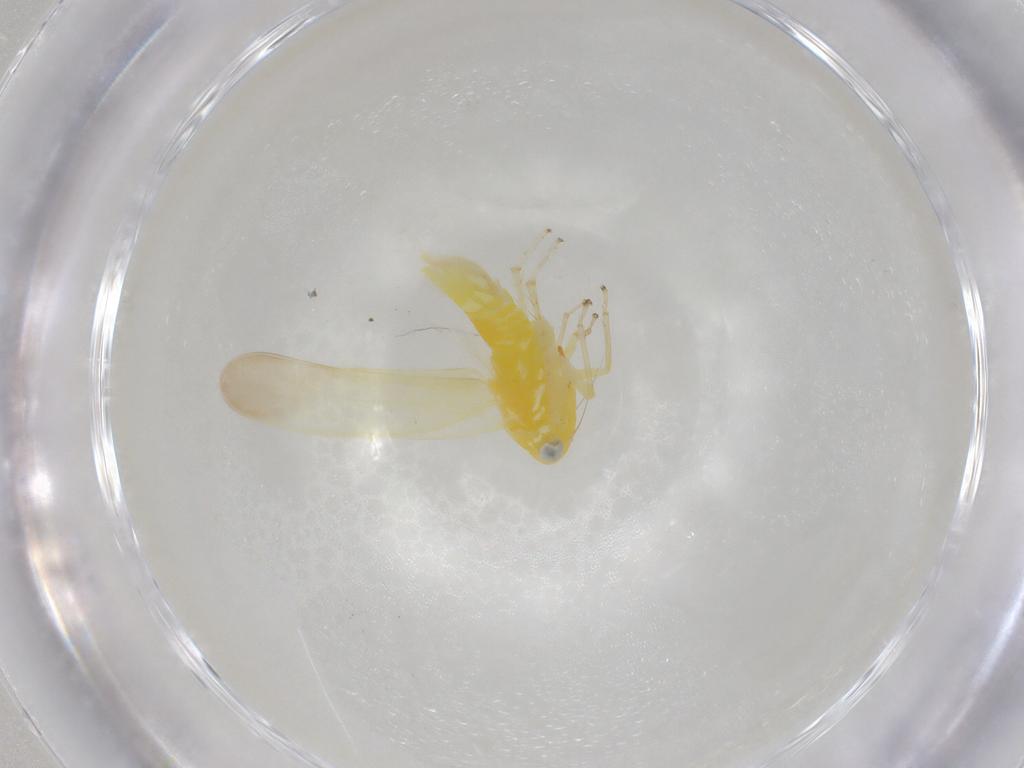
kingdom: Animalia
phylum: Arthropoda
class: Insecta
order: Hemiptera
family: Cicadellidae
